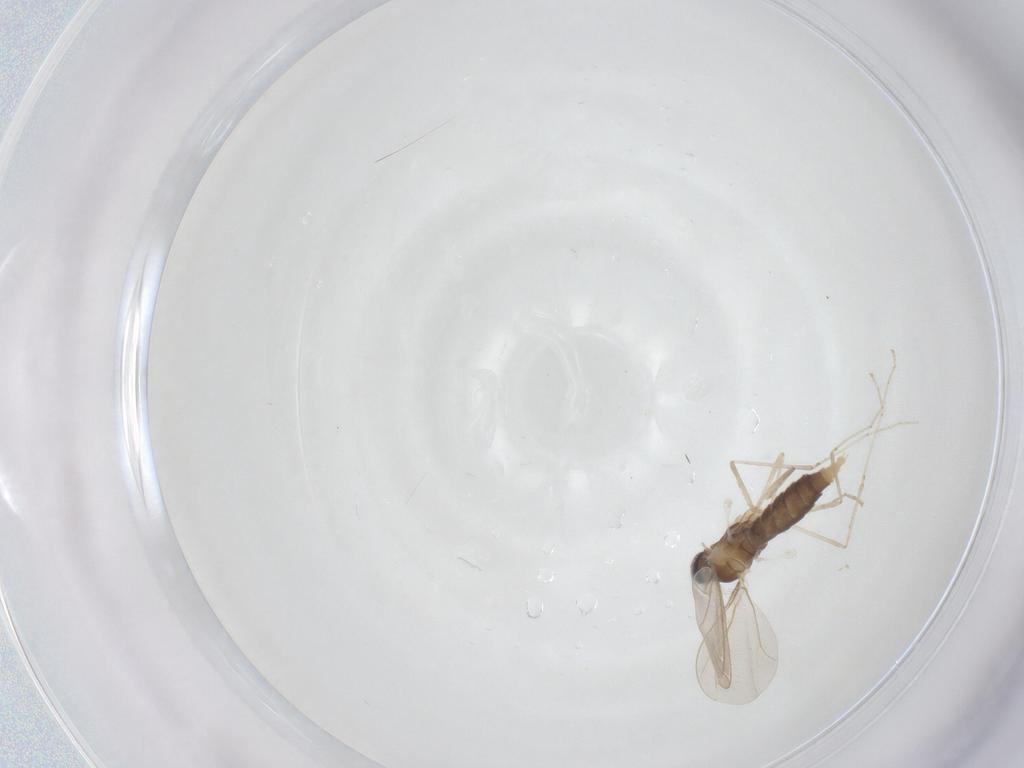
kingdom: Animalia
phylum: Arthropoda
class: Insecta
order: Diptera
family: Cecidomyiidae
